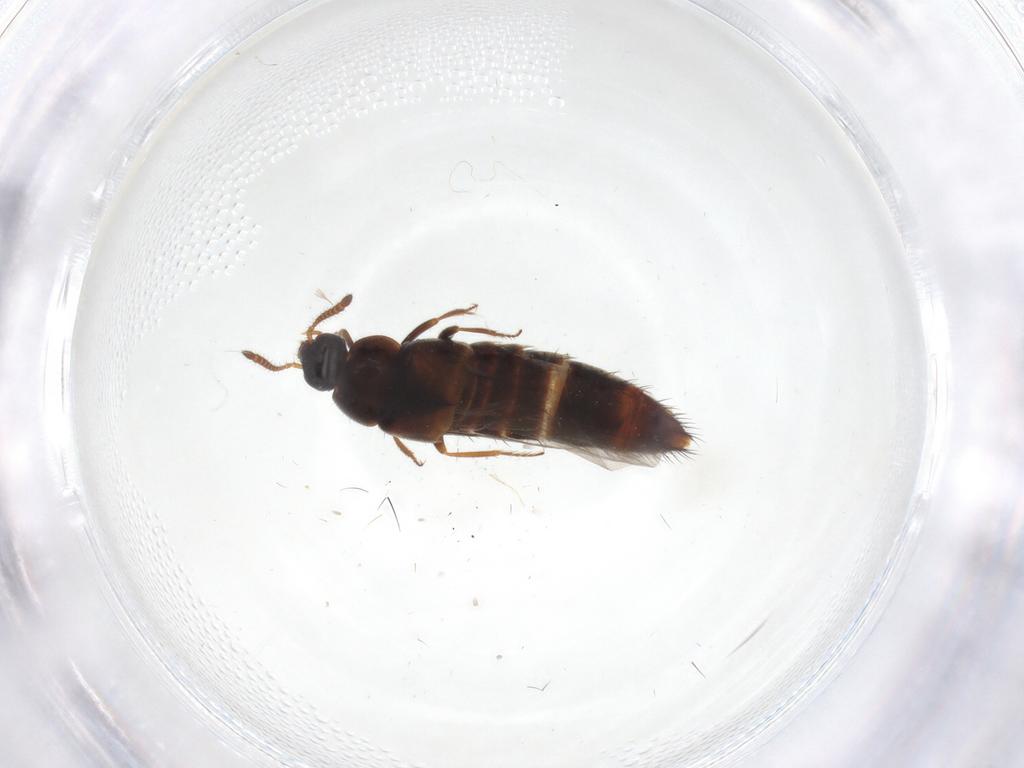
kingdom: Animalia
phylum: Arthropoda
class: Insecta
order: Coleoptera
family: Staphylinidae
